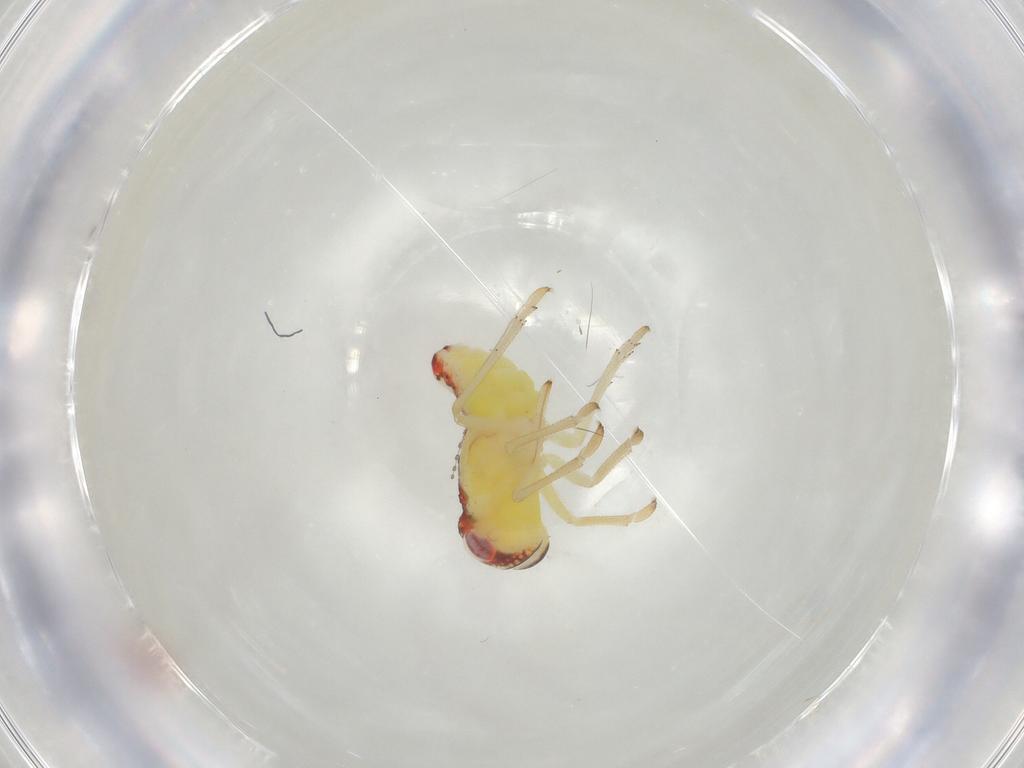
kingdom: Animalia
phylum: Arthropoda
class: Insecta
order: Hemiptera
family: Tropiduchidae
